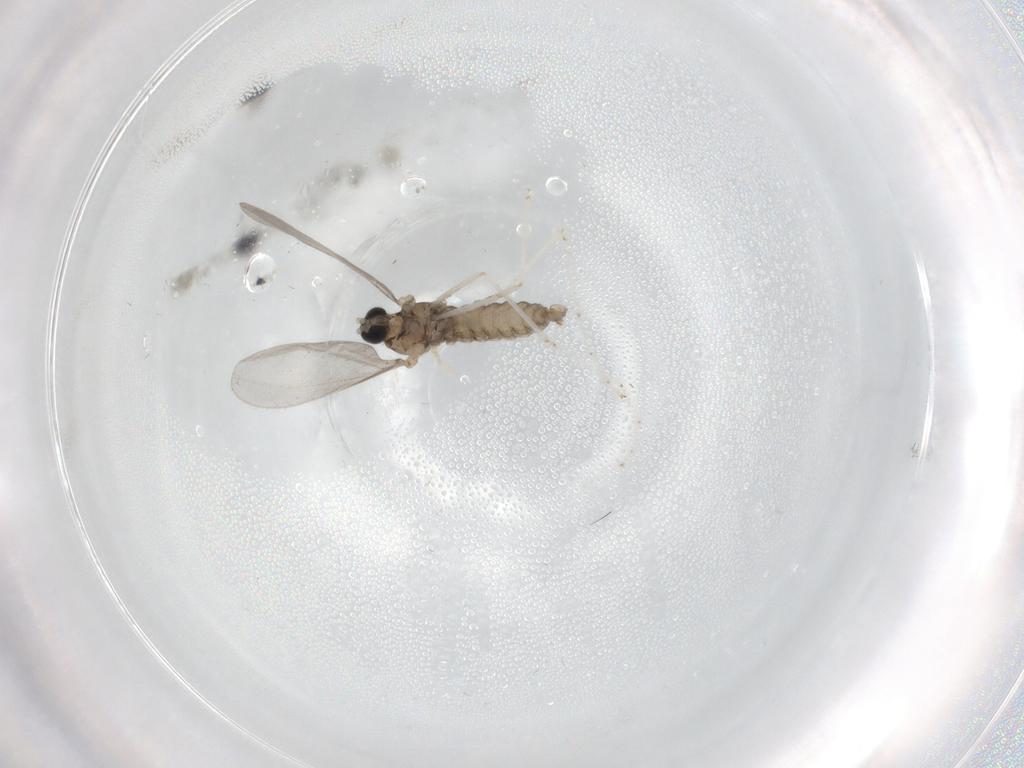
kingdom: Animalia
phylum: Arthropoda
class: Insecta
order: Diptera
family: Cecidomyiidae
